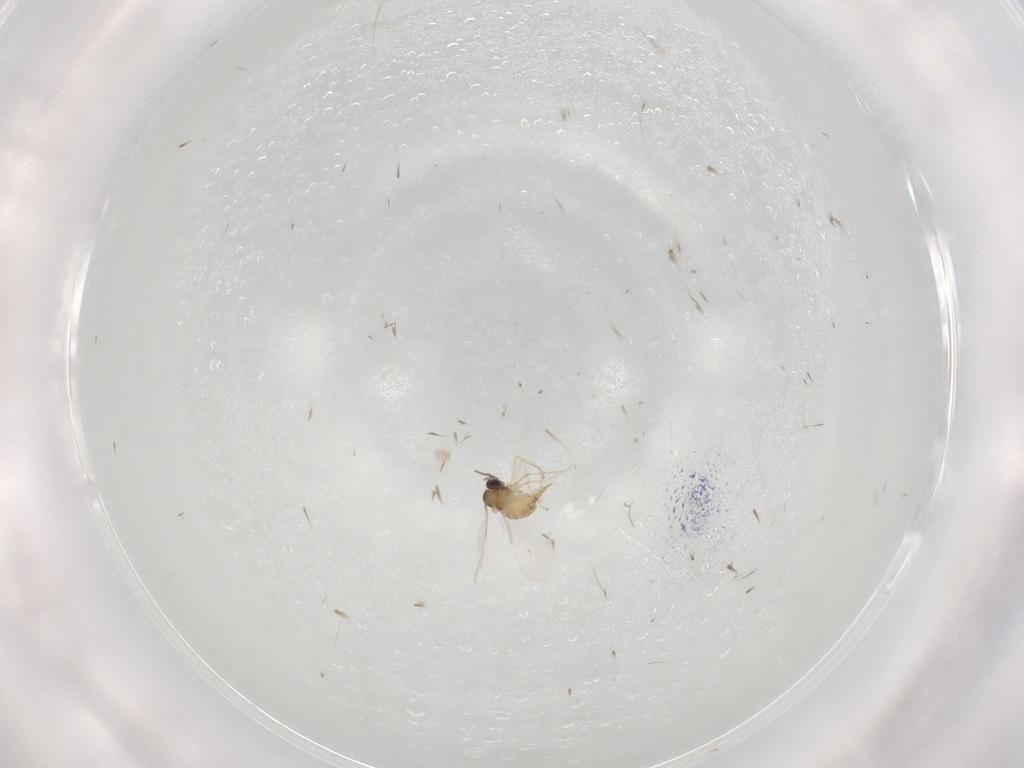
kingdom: Animalia
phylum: Arthropoda
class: Insecta
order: Diptera
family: Cecidomyiidae
